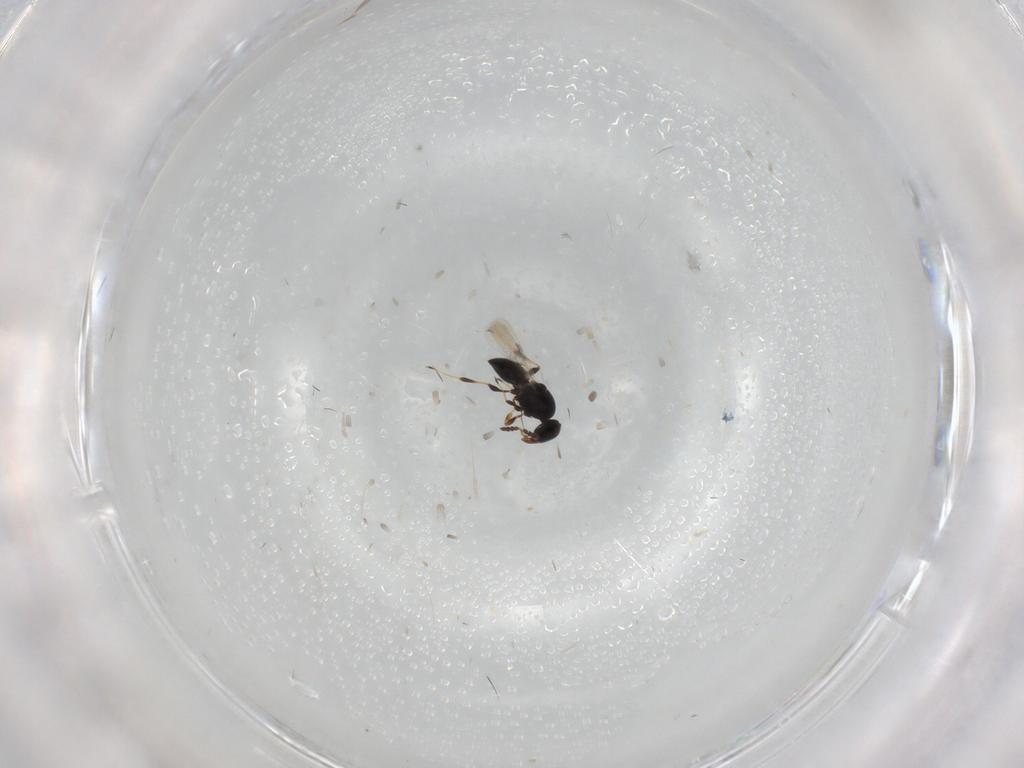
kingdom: Animalia
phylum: Arthropoda
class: Insecta
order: Hymenoptera
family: Platygastridae
